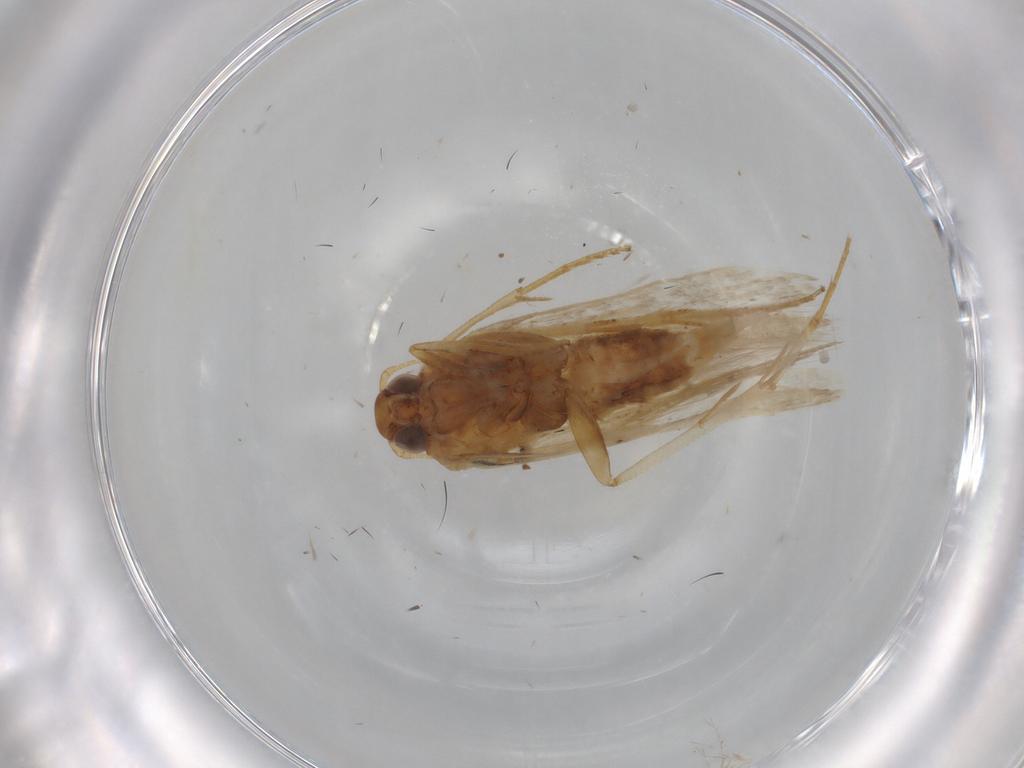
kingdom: Animalia
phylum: Arthropoda
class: Insecta
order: Lepidoptera
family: Gelechiidae
